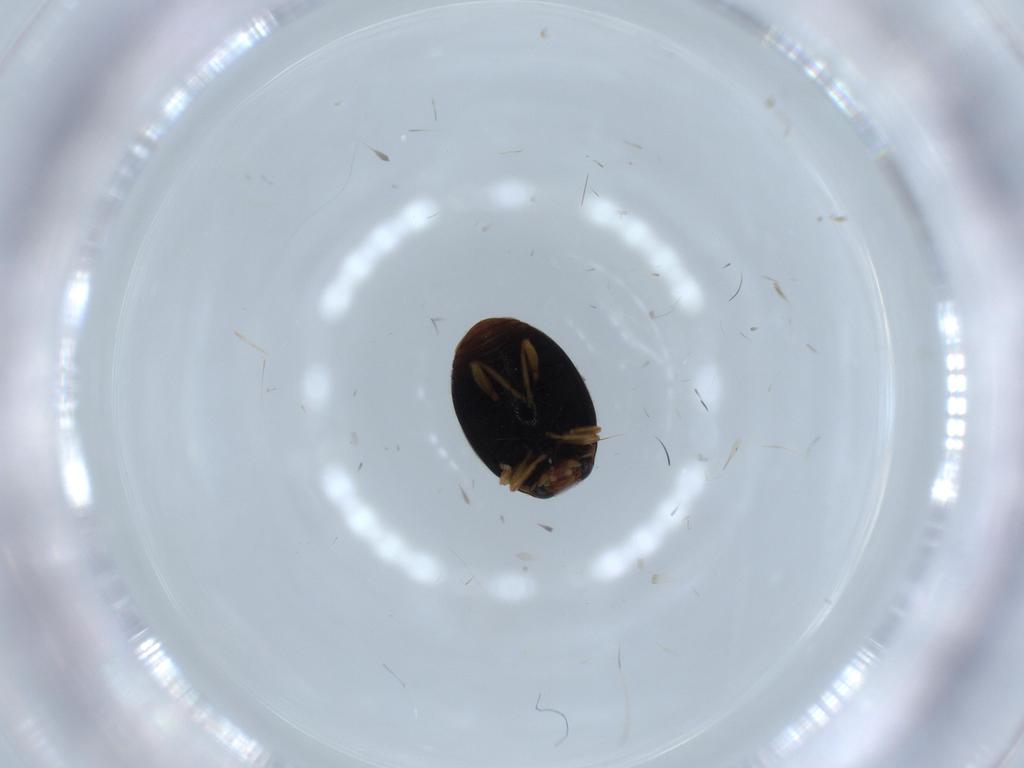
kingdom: Animalia
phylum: Arthropoda
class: Insecta
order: Coleoptera
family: Coccinellidae
